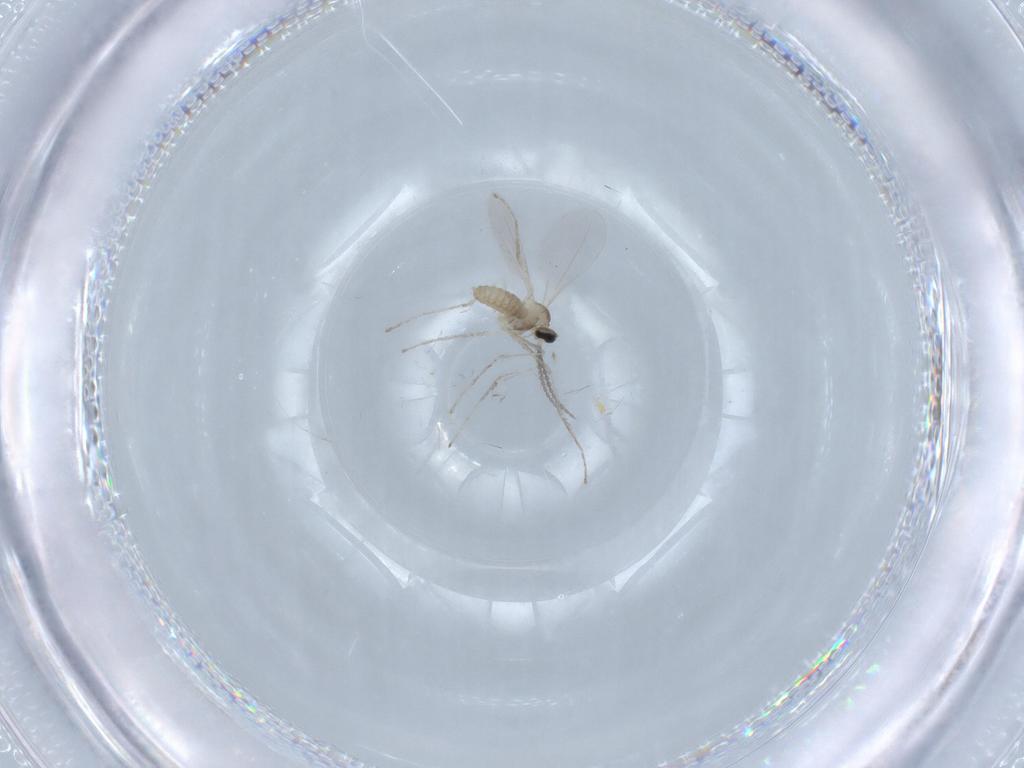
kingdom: Animalia
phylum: Arthropoda
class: Insecta
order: Diptera
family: Cecidomyiidae
